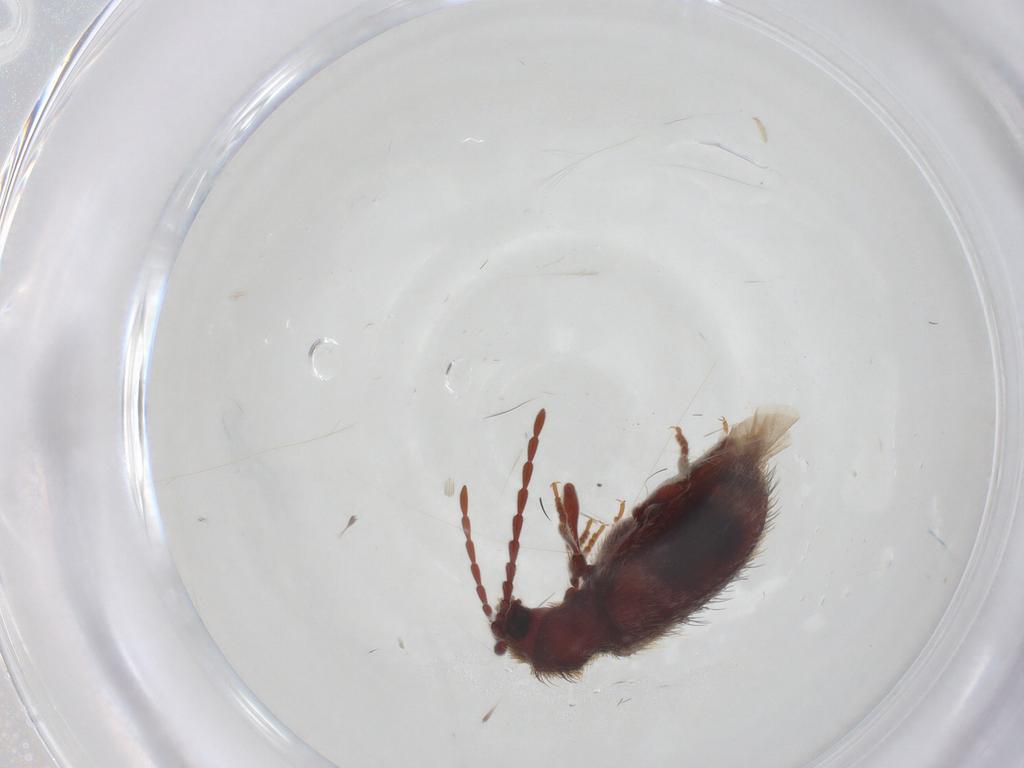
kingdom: Animalia
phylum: Arthropoda
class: Insecta
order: Coleoptera
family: Ptinidae
